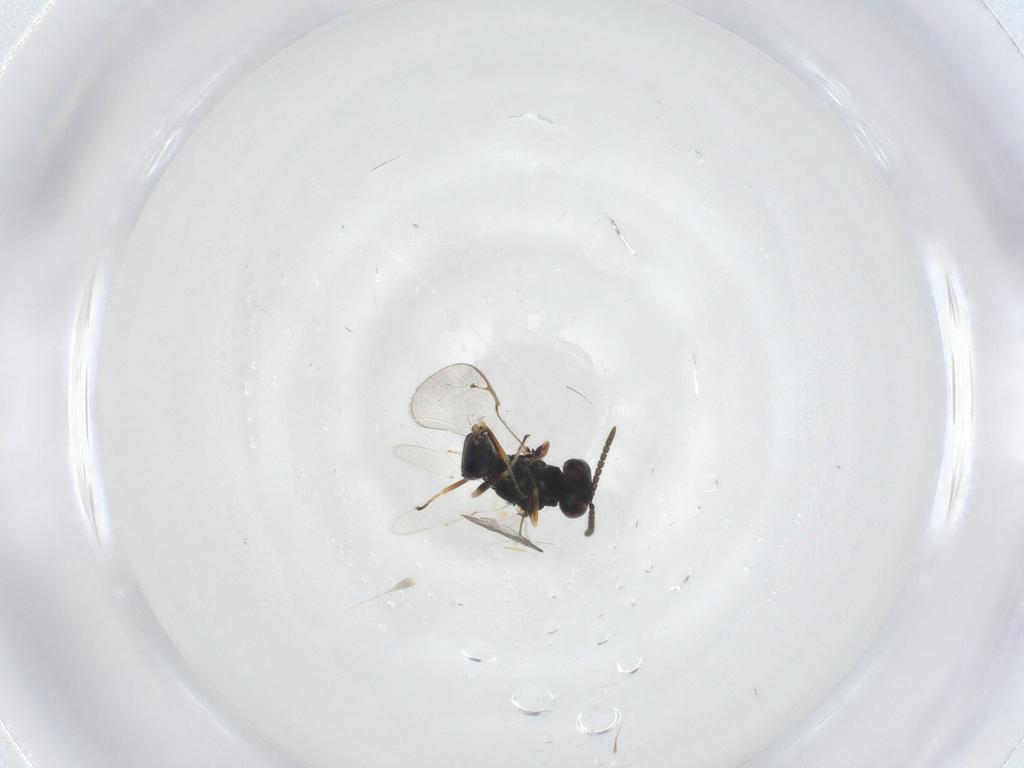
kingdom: Animalia
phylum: Arthropoda
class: Insecta
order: Hymenoptera
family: Pteromalidae
